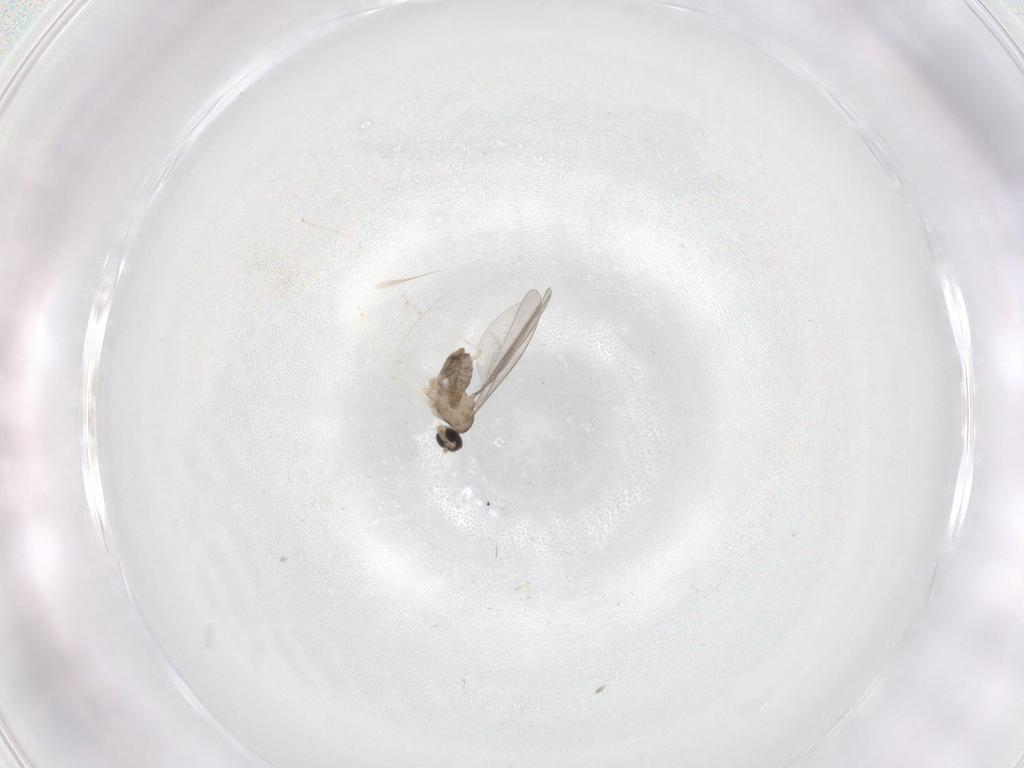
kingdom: Animalia
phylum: Arthropoda
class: Insecta
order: Diptera
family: Cecidomyiidae
